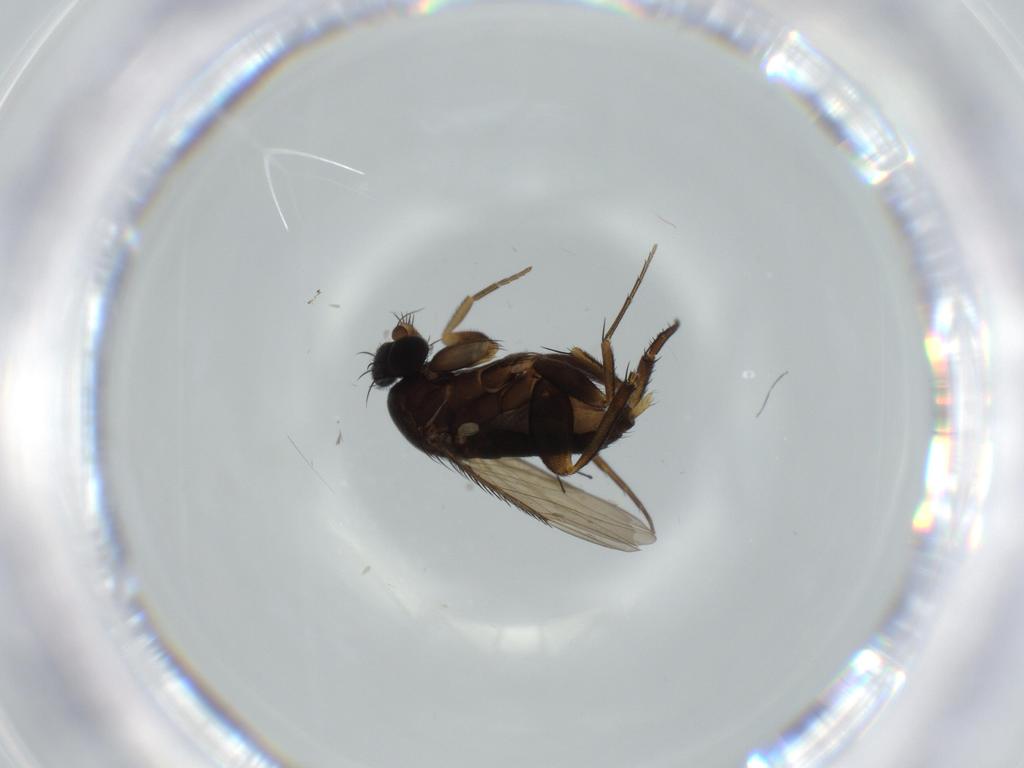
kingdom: Animalia
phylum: Arthropoda
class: Insecta
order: Diptera
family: Phoridae
